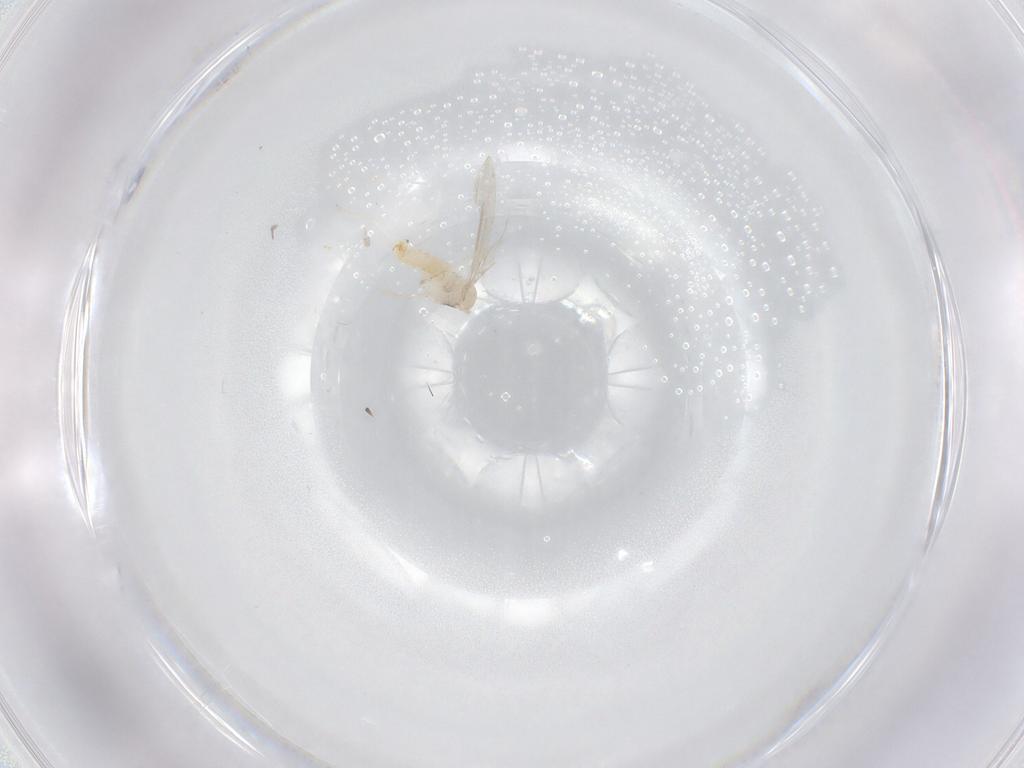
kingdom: Animalia
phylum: Arthropoda
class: Insecta
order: Diptera
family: Cecidomyiidae
